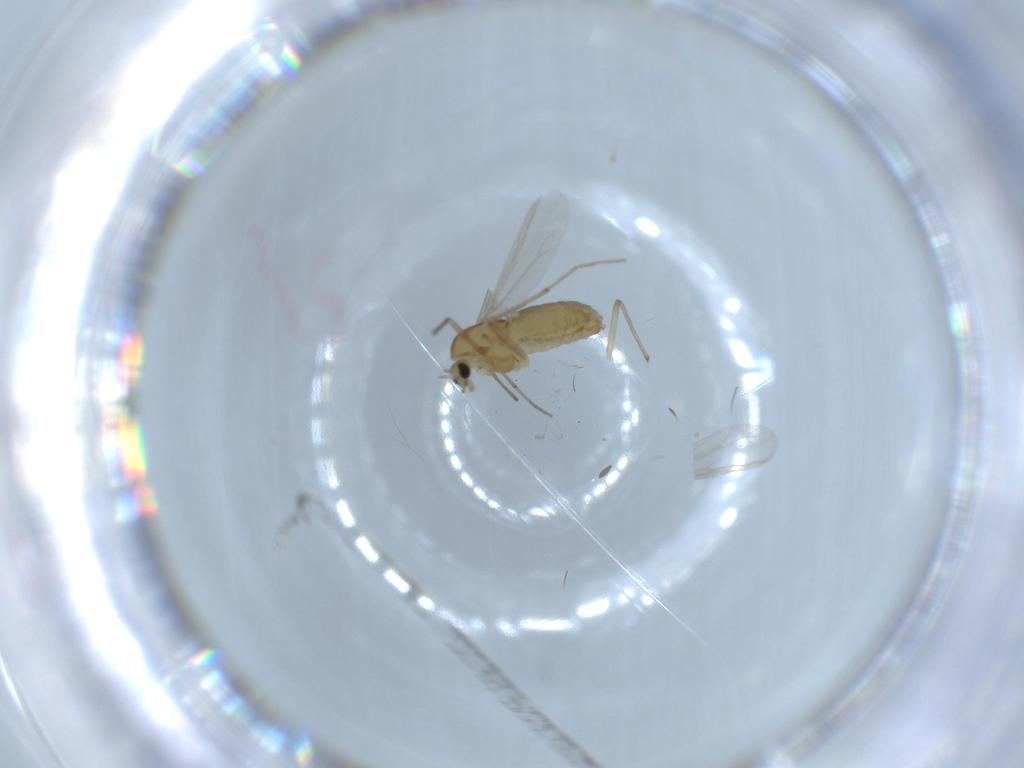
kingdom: Animalia
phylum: Arthropoda
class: Insecta
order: Diptera
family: Chironomidae
